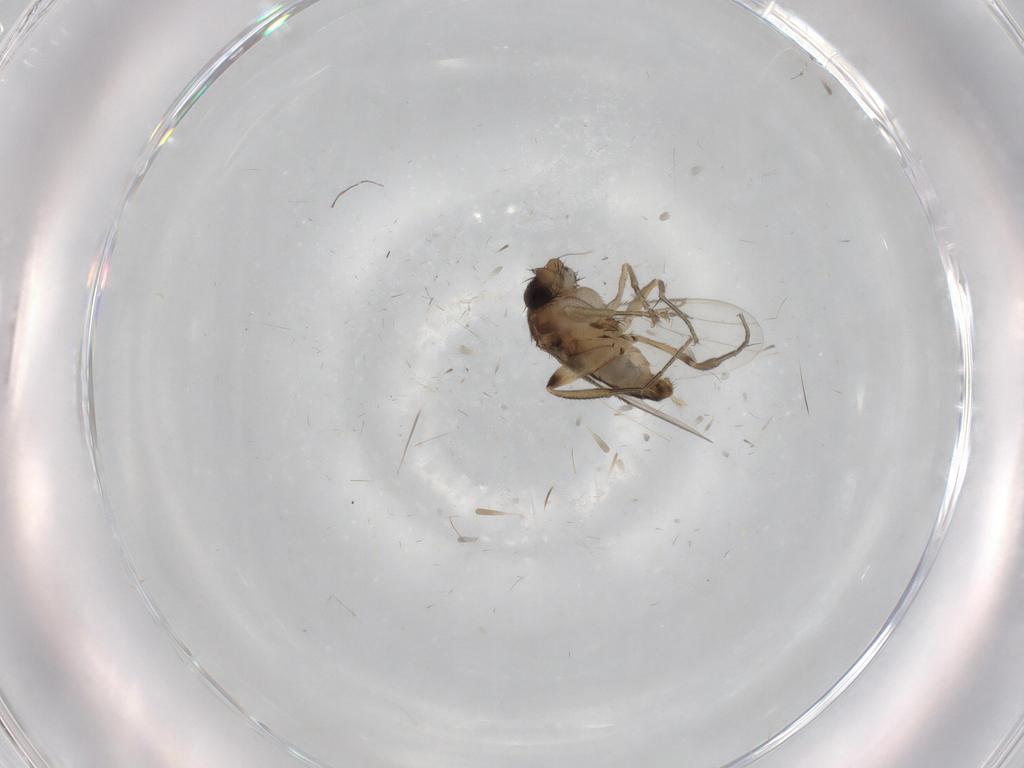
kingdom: Animalia
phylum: Arthropoda
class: Insecta
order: Diptera
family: Phoridae
